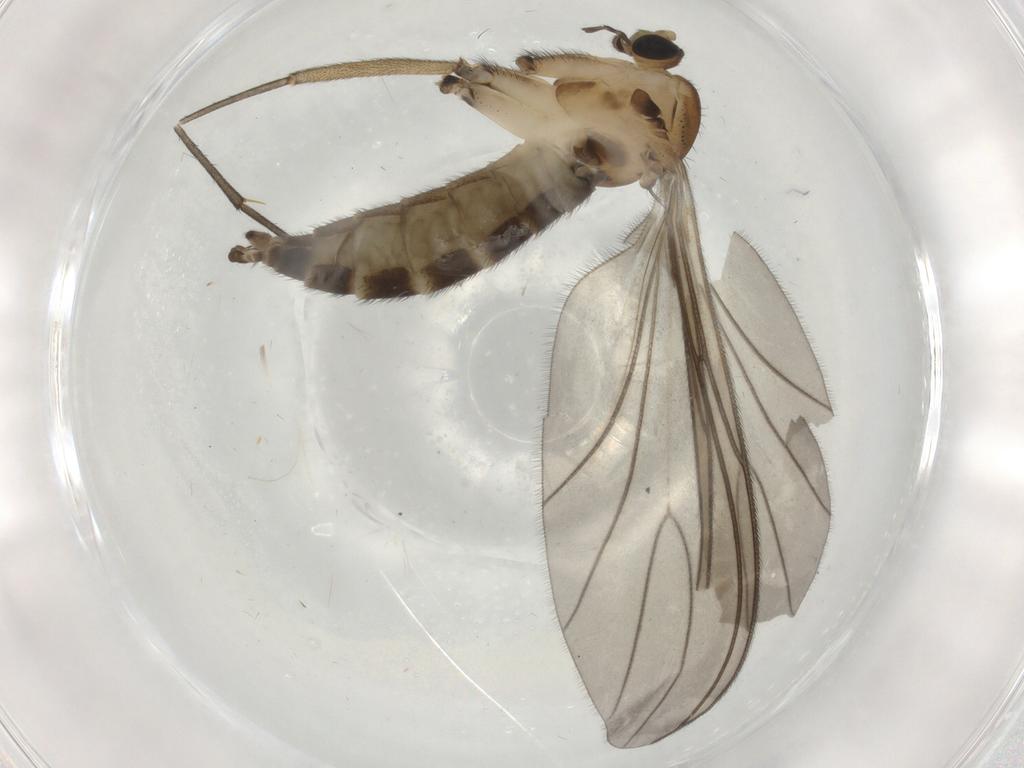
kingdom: Animalia
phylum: Arthropoda
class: Insecta
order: Diptera
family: Sciaridae
